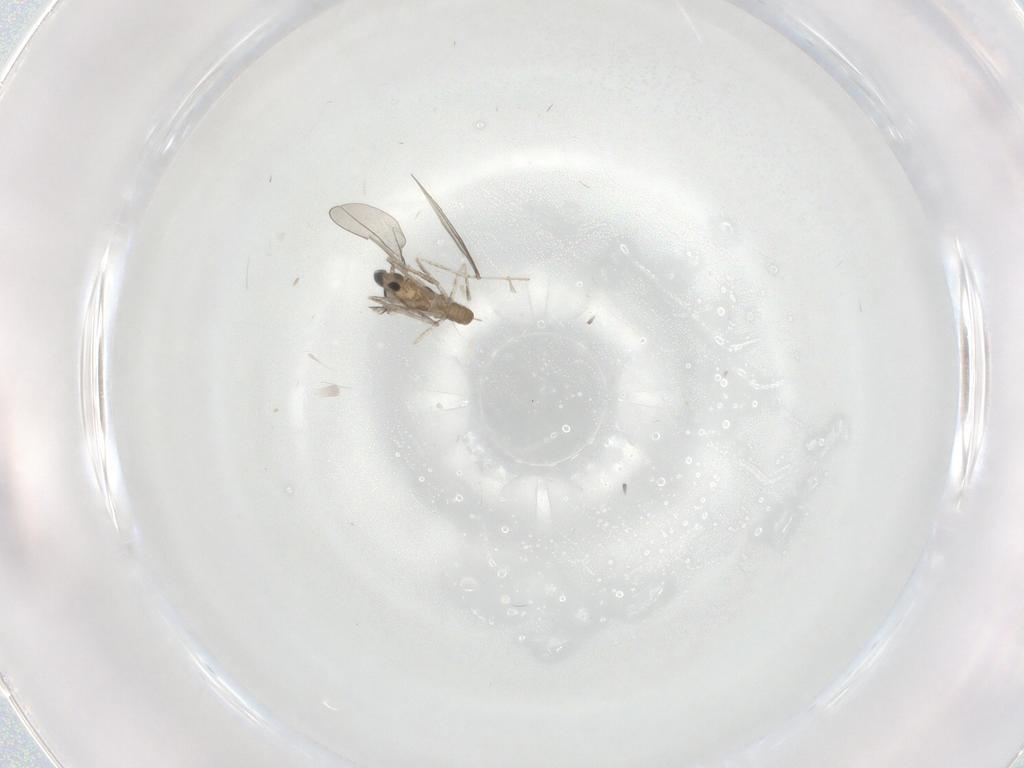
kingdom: Animalia
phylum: Arthropoda
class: Insecta
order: Diptera
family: Cecidomyiidae
